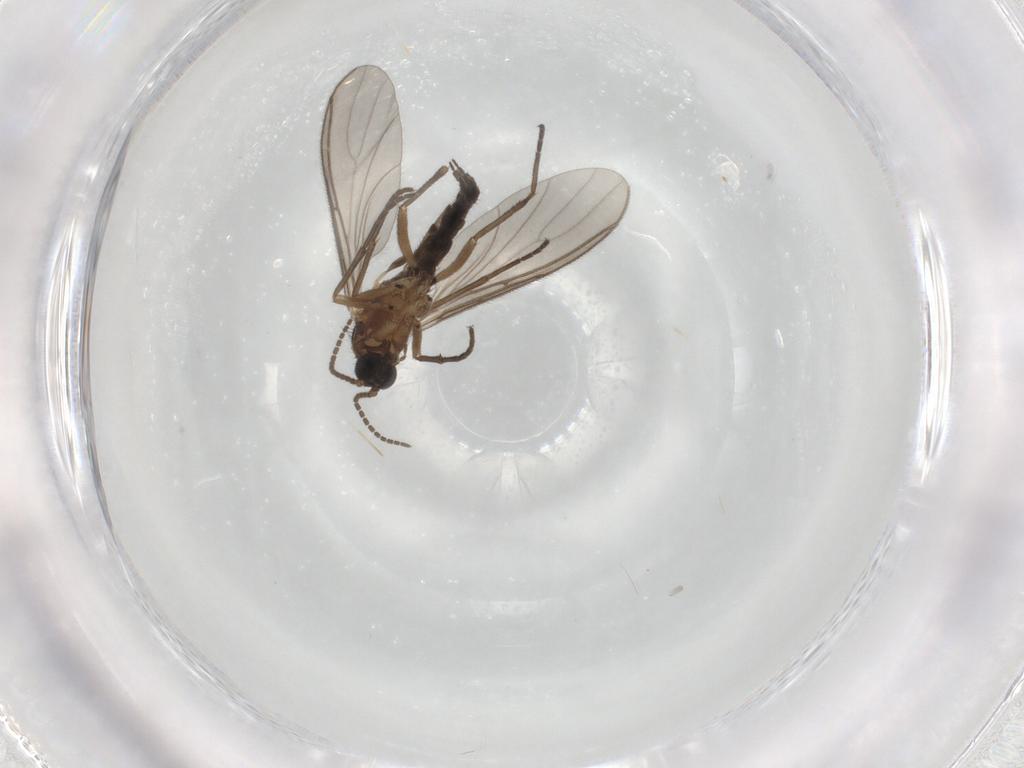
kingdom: Animalia
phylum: Arthropoda
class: Insecta
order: Diptera
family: Sciaridae
